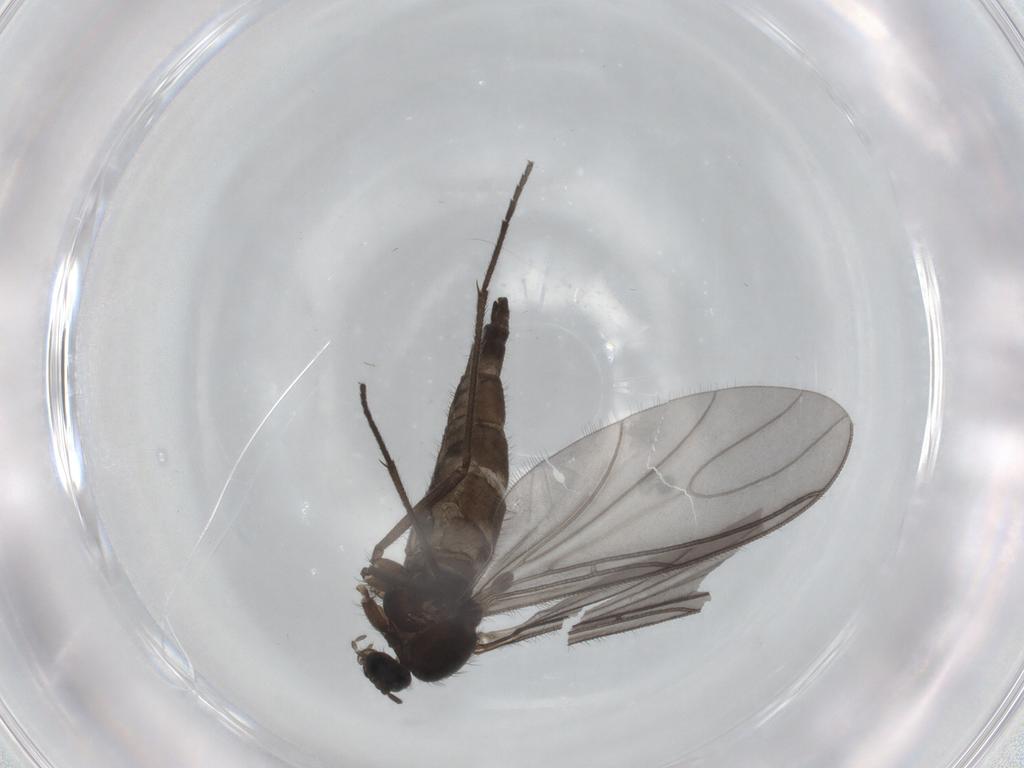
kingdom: Animalia
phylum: Arthropoda
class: Insecta
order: Diptera
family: Sciaridae
